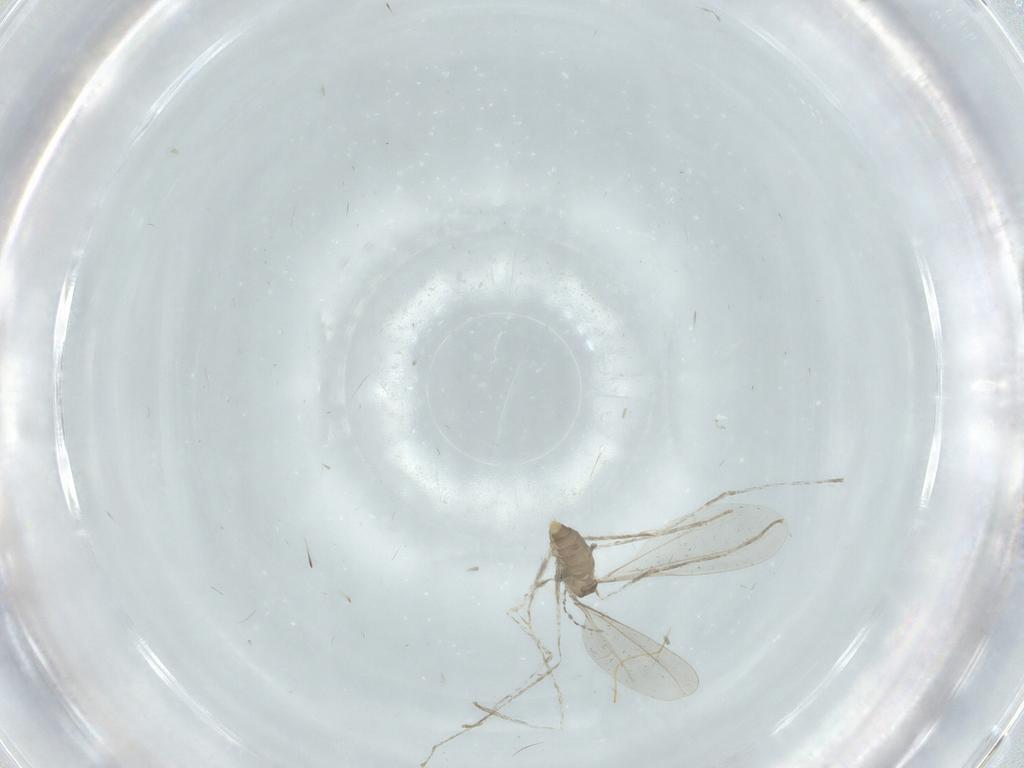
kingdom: Animalia
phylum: Arthropoda
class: Insecta
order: Diptera
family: Cecidomyiidae
